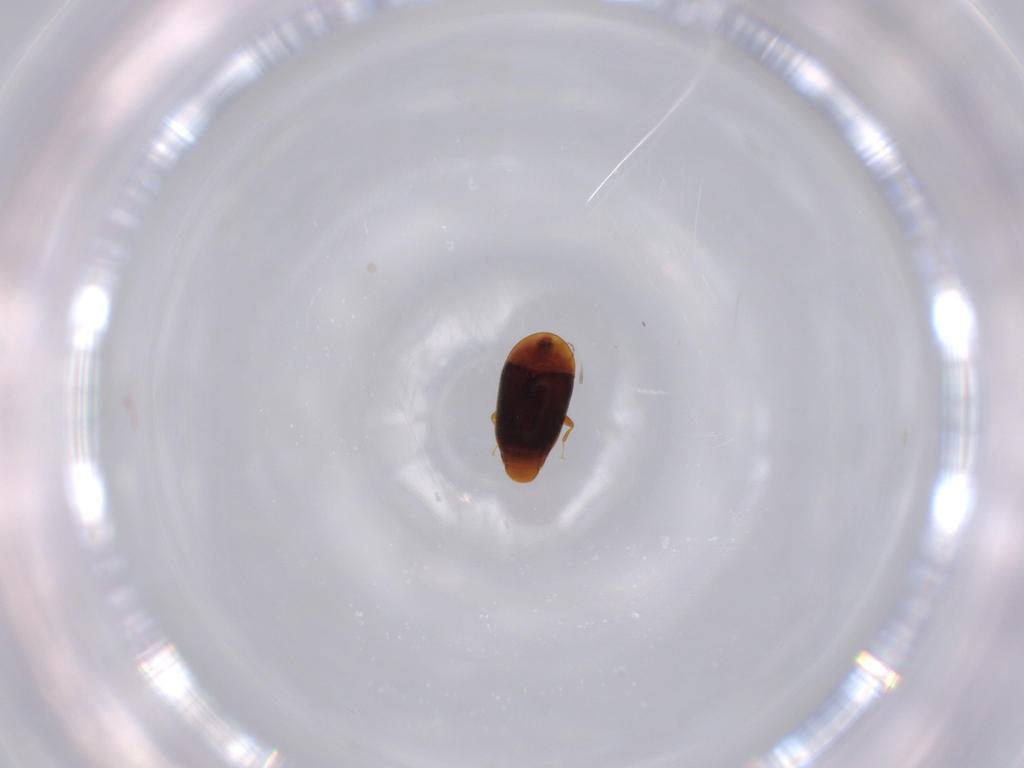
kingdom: Animalia
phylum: Arthropoda
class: Insecta
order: Coleoptera
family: Corylophidae
